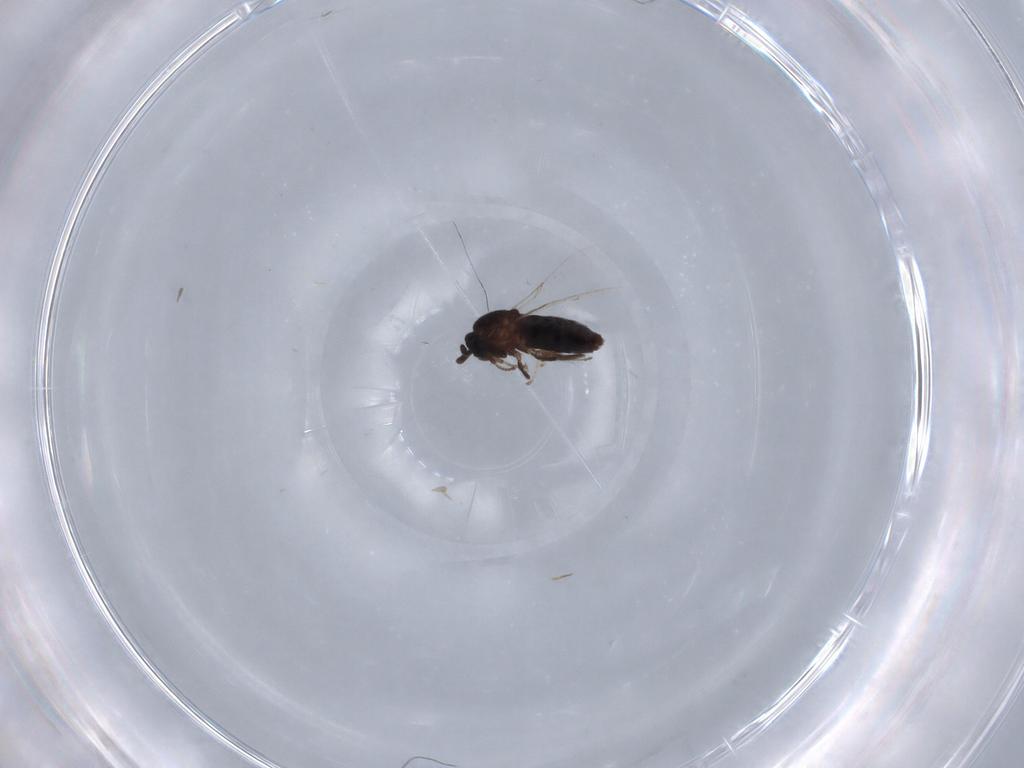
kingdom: Animalia
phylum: Arthropoda
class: Insecta
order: Diptera
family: Scatopsidae
